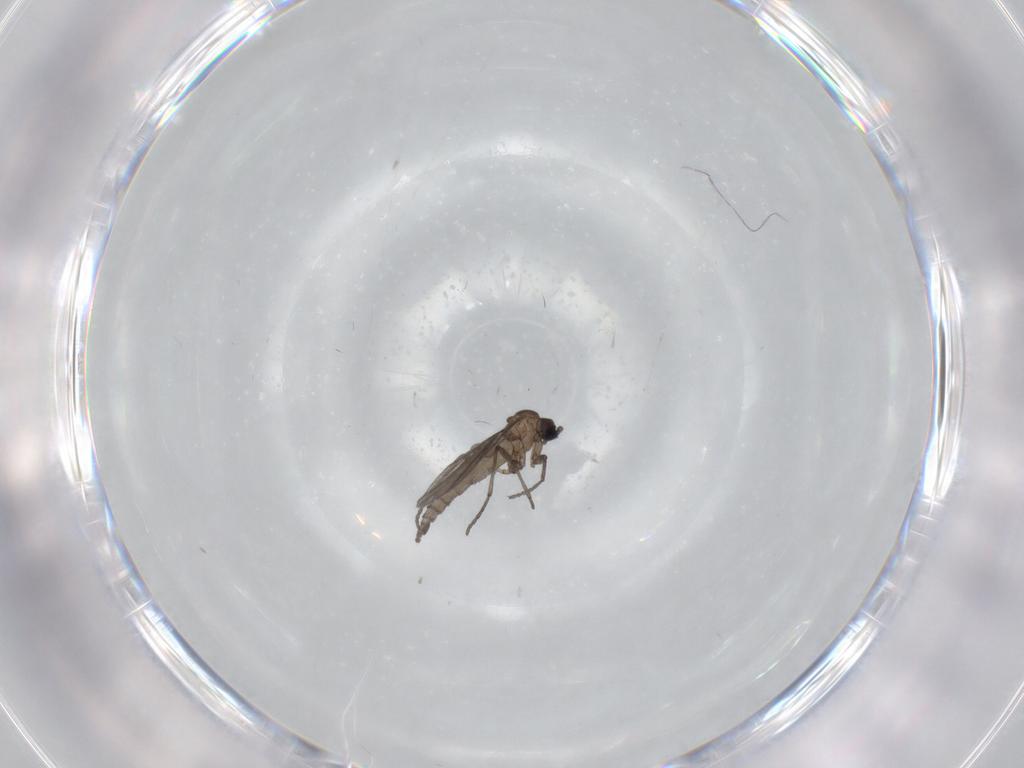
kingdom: Animalia
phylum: Arthropoda
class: Insecta
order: Diptera
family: Sciaridae
